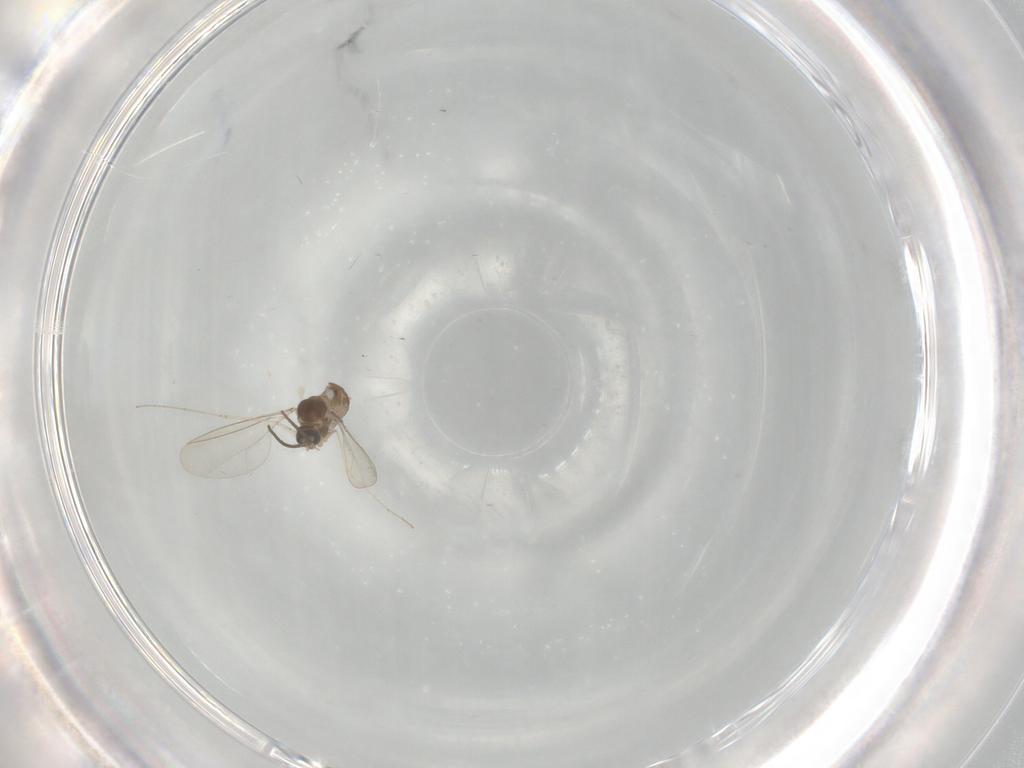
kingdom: Animalia
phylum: Arthropoda
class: Insecta
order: Diptera
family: Cecidomyiidae
